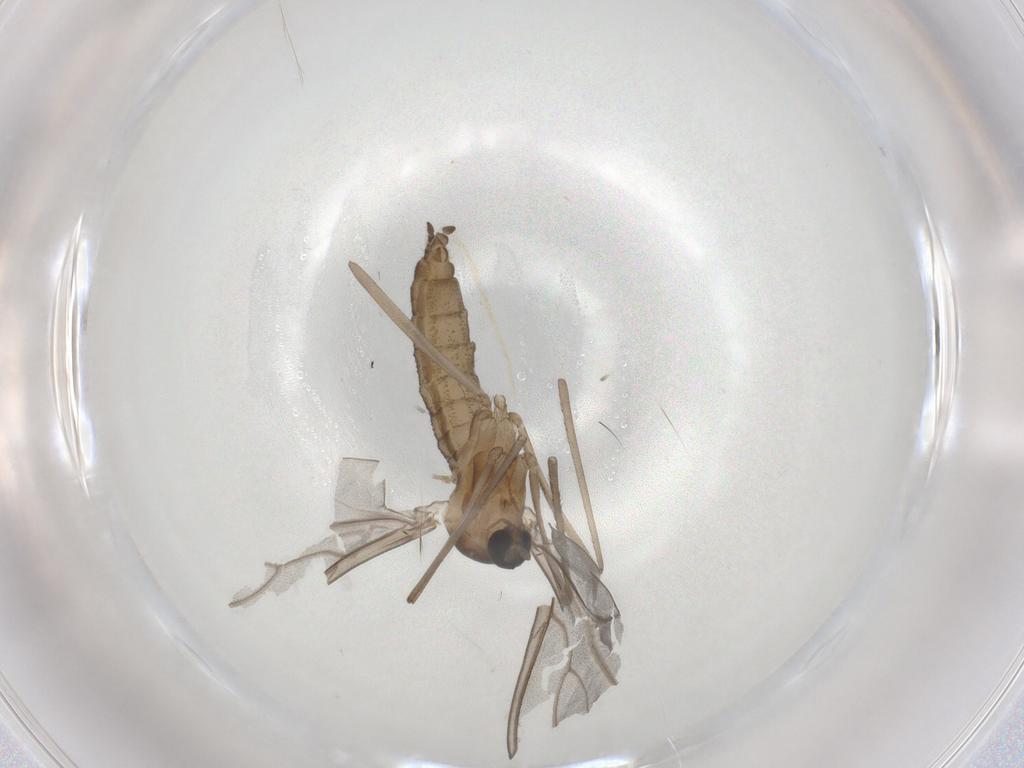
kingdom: Animalia
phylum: Arthropoda
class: Insecta
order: Diptera
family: Cecidomyiidae
